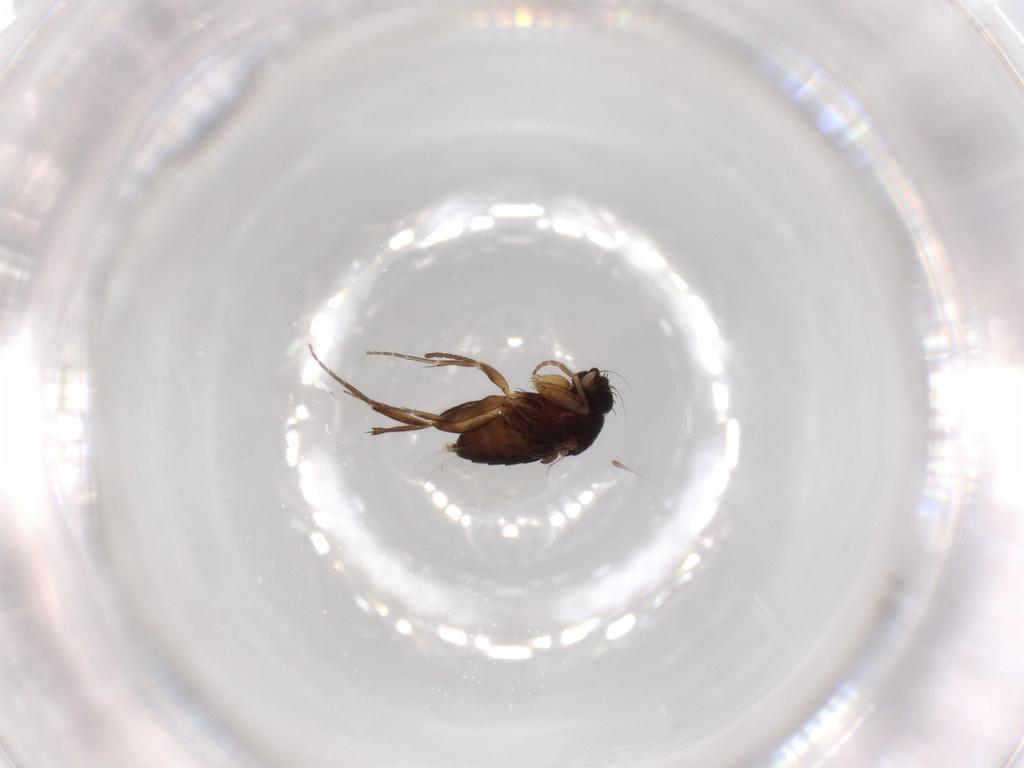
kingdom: Animalia
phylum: Arthropoda
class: Insecta
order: Diptera
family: Phoridae
